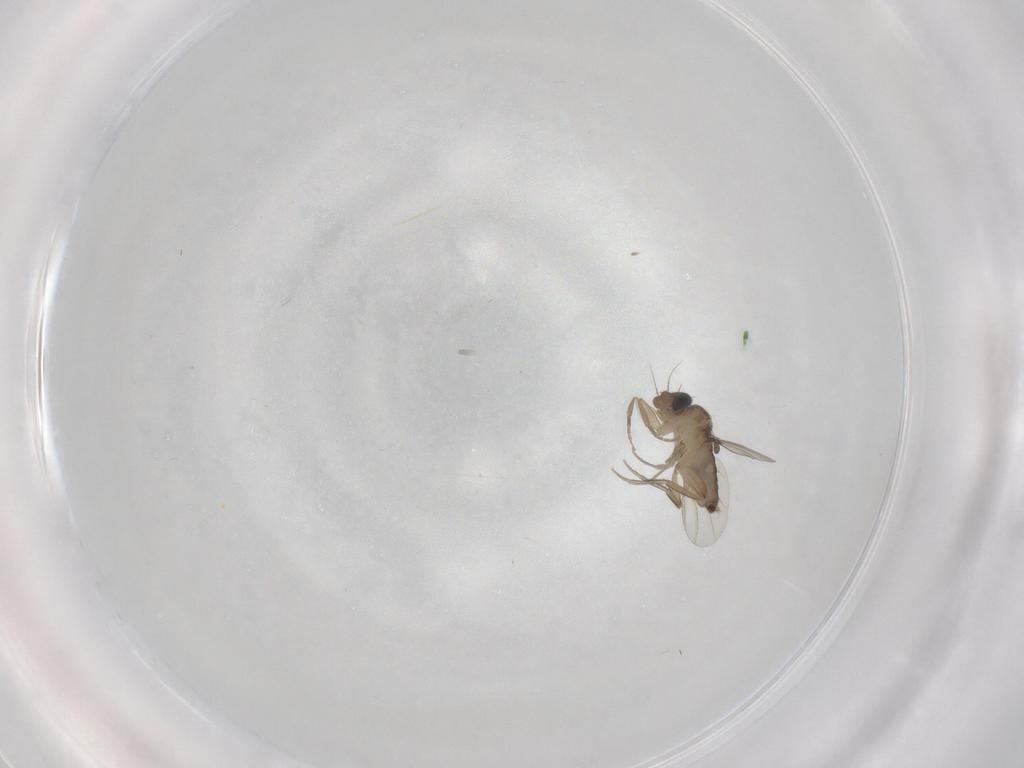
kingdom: Animalia
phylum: Arthropoda
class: Insecta
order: Diptera
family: Phoridae
